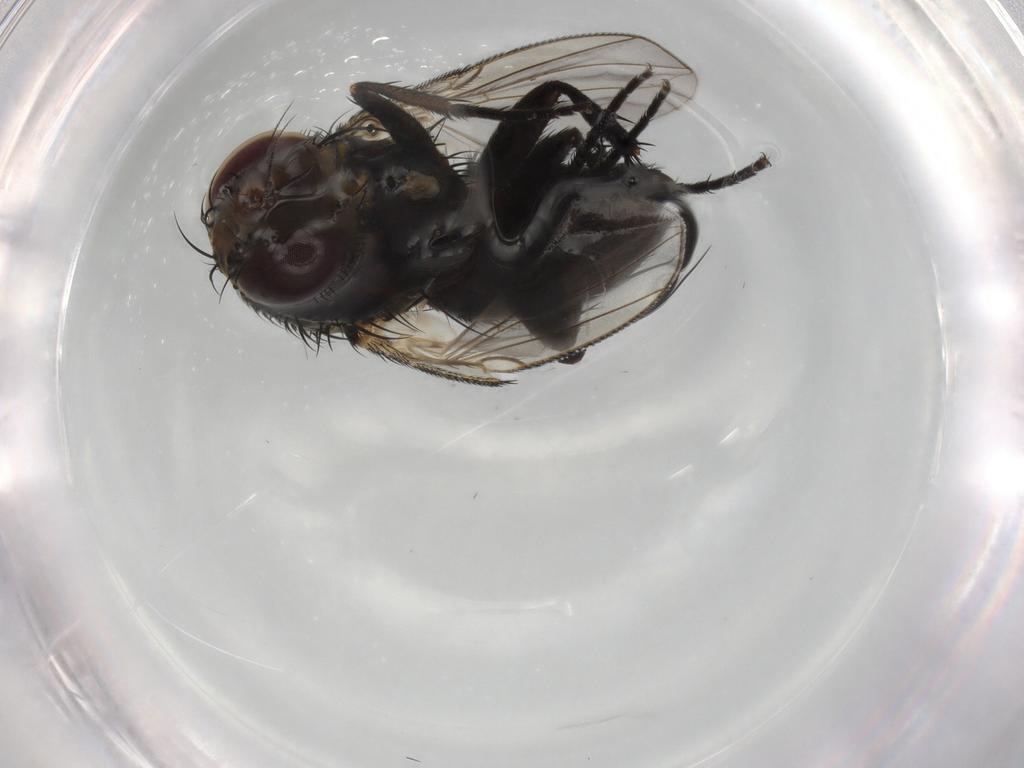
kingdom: Animalia
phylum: Arthropoda
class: Insecta
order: Diptera
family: Tachinidae
